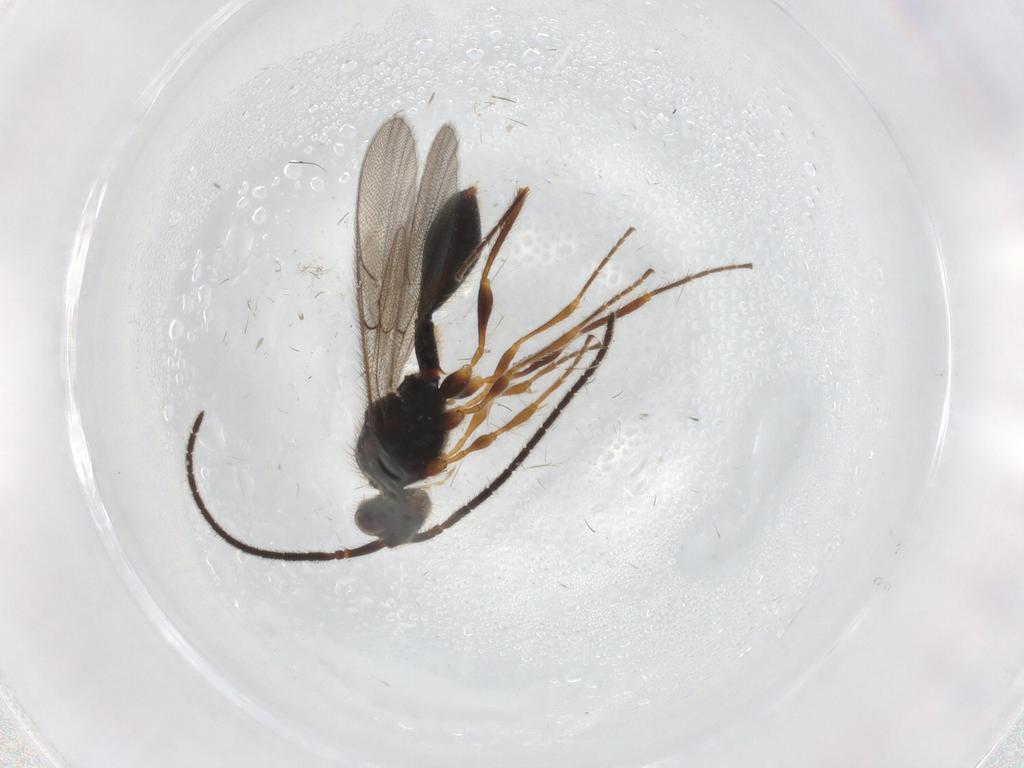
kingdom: Animalia
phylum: Arthropoda
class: Insecta
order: Hymenoptera
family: Diapriidae
